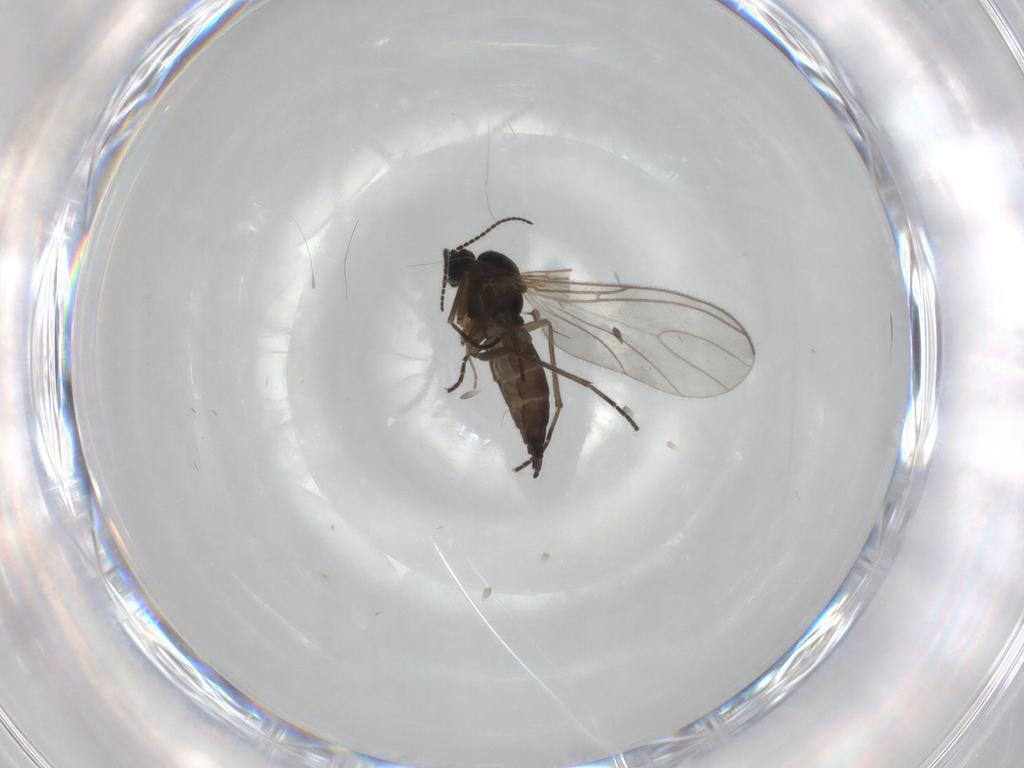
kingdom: Animalia
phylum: Arthropoda
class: Insecta
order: Diptera
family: Chironomidae
